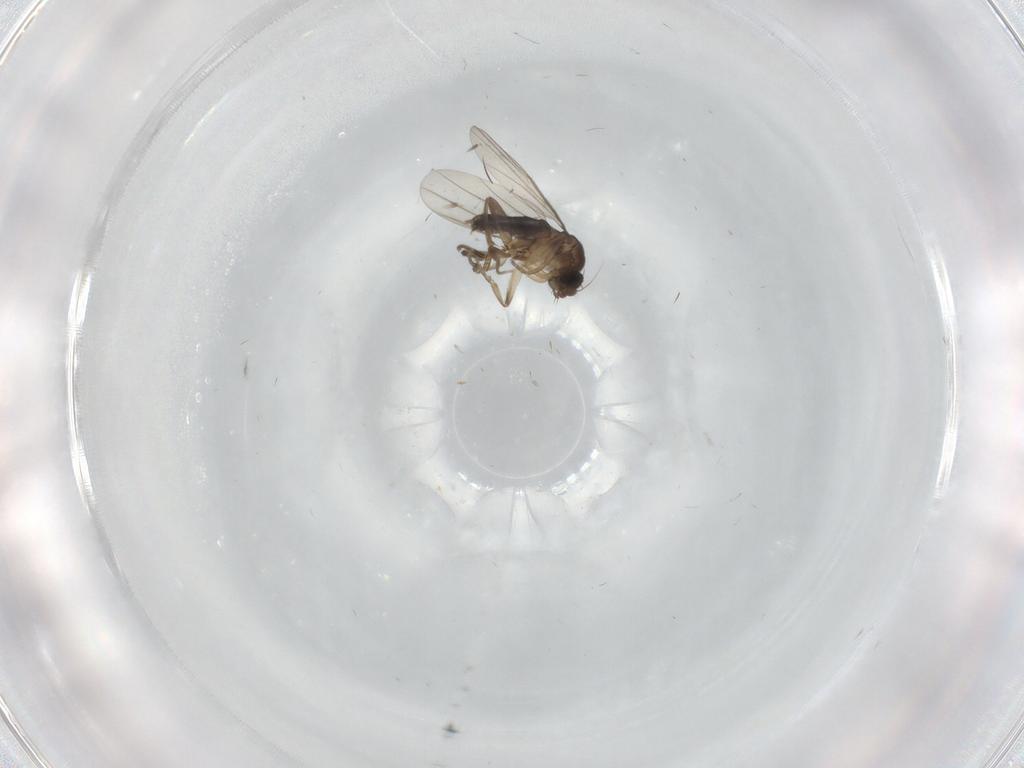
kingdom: Animalia
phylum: Arthropoda
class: Insecta
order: Diptera
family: Phoridae
